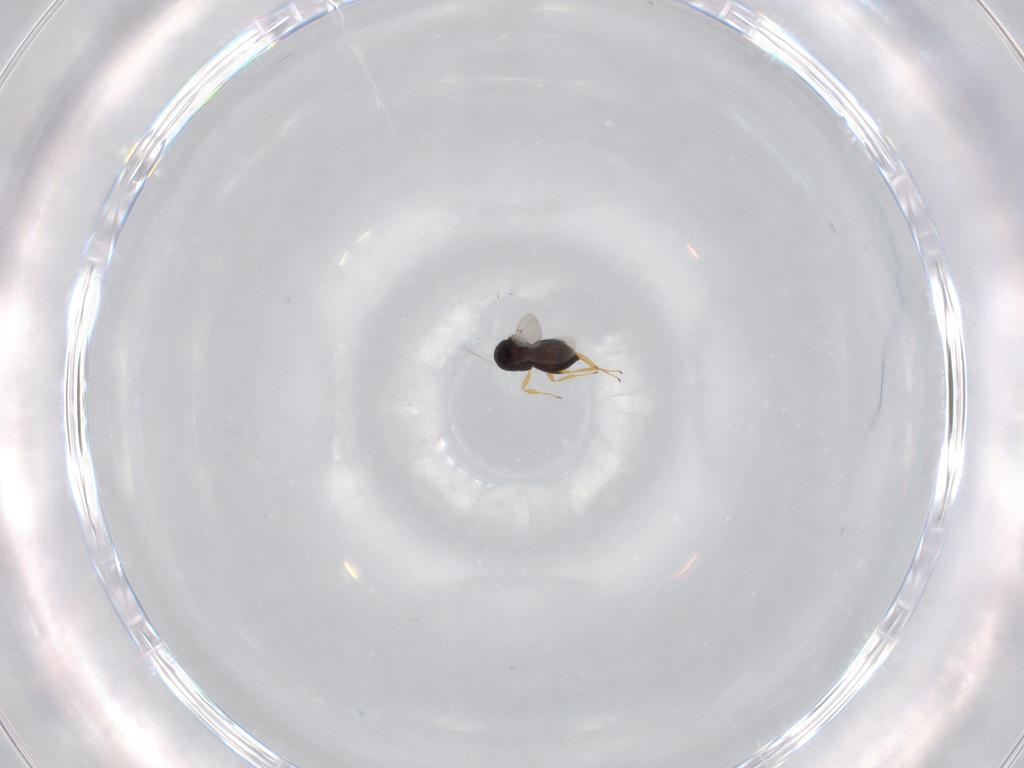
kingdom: Animalia
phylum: Arthropoda
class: Insecta
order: Hymenoptera
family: Scelionidae
